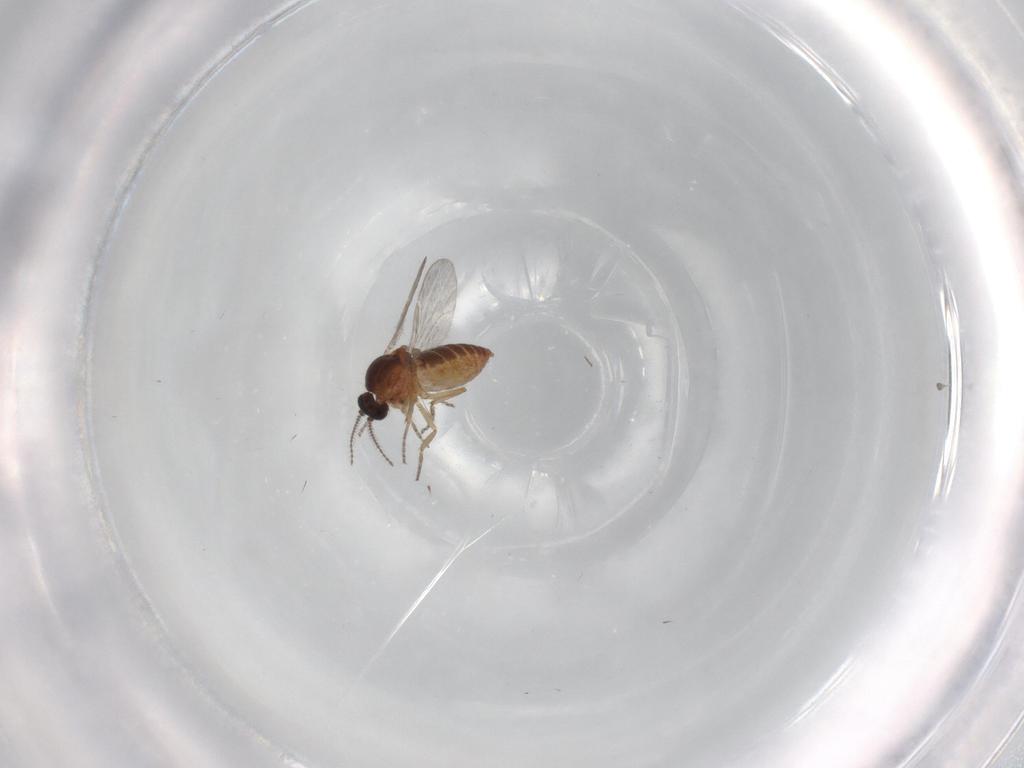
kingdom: Animalia
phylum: Arthropoda
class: Insecta
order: Diptera
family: Ceratopogonidae
